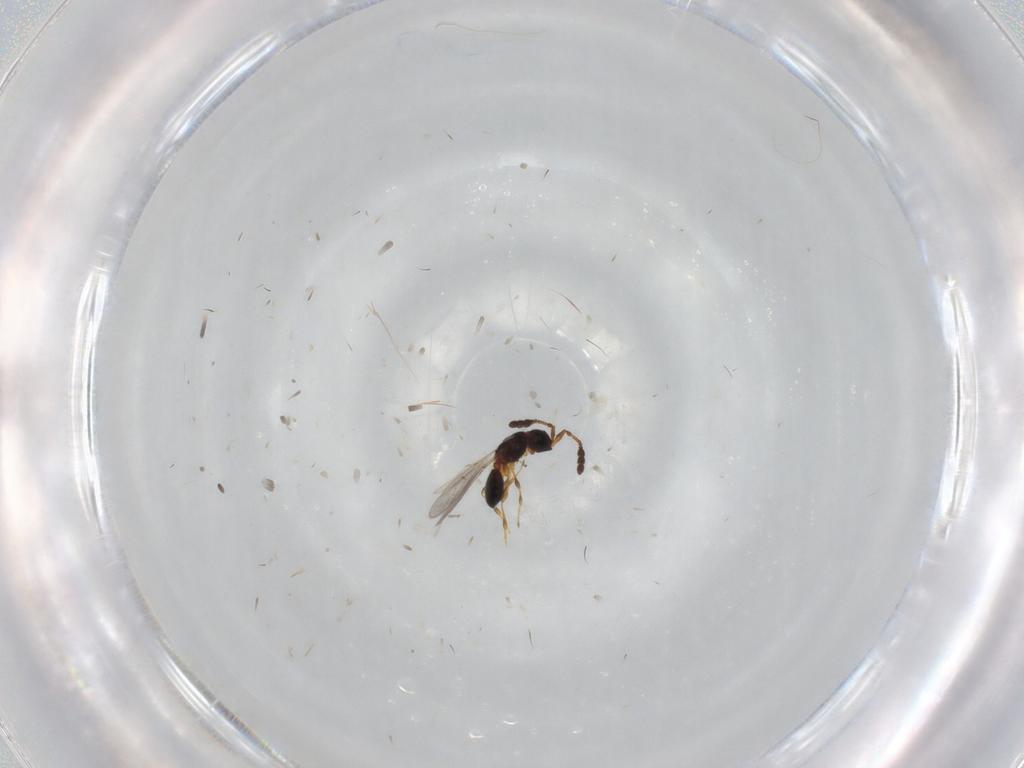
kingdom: Animalia
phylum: Arthropoda
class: Insecta
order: Hymenoptera
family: Diapriidae
